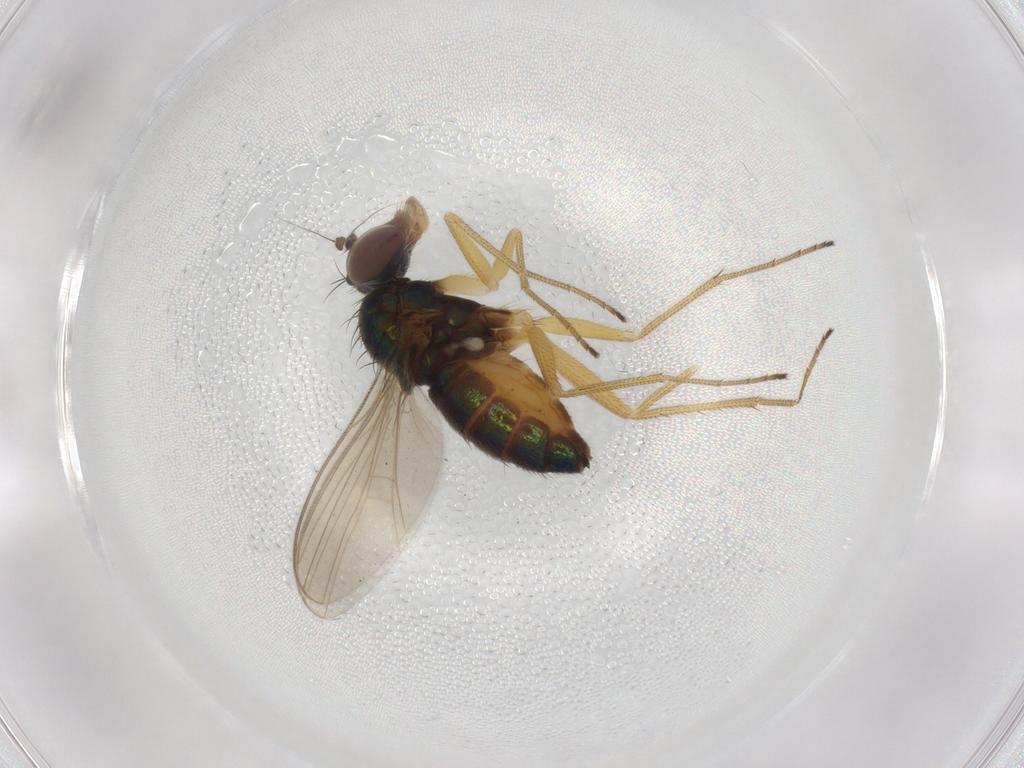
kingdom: Animalia
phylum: Arthropoda
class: Insecta
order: Diptera
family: Dolichopodidae
